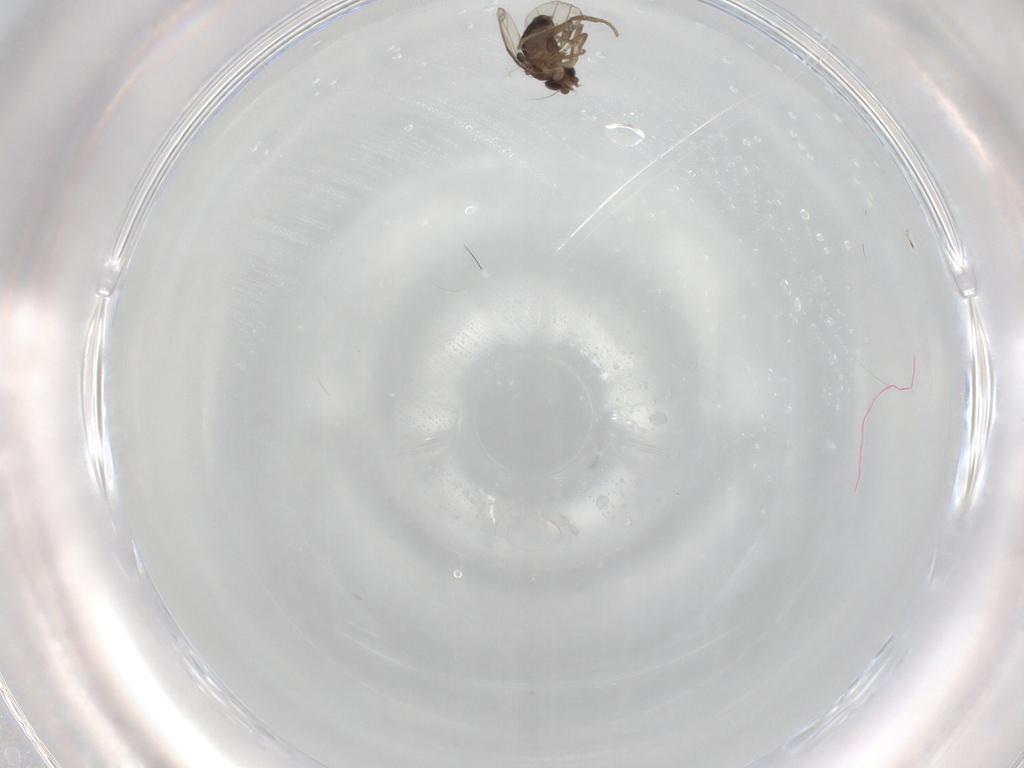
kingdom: Animalia
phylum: Arthropoda
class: Insecta
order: Diptera
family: Phoridae
